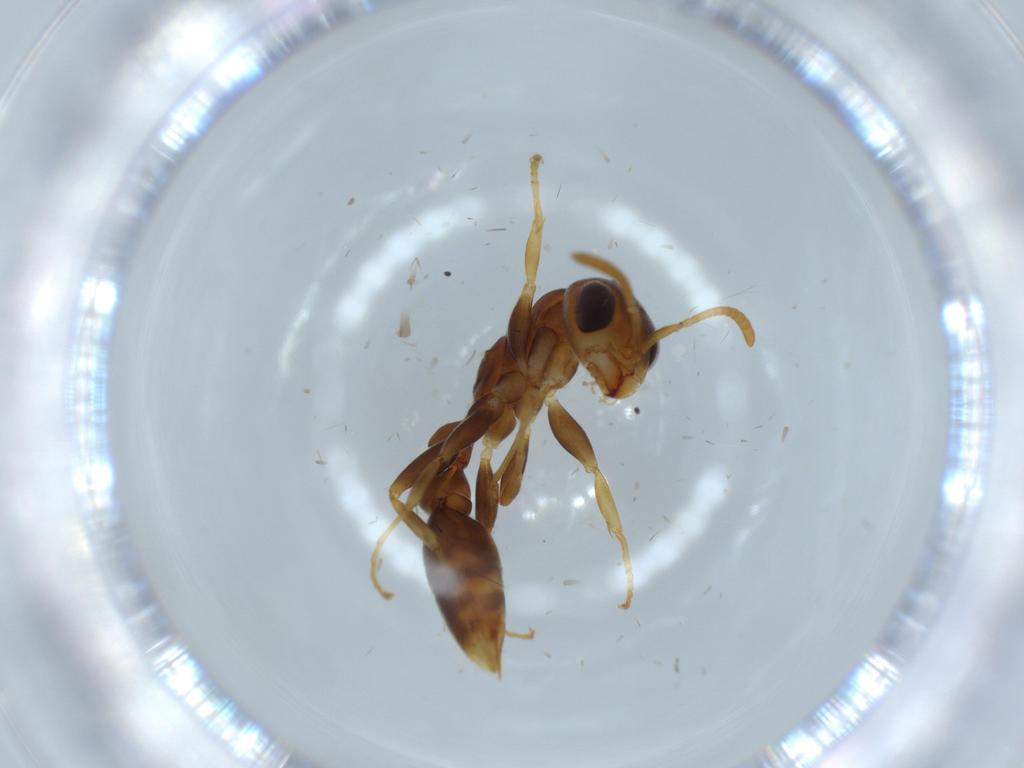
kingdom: Animalia
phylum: Arthropoda
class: Insecta
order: Hymenoptera
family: Formicidae
